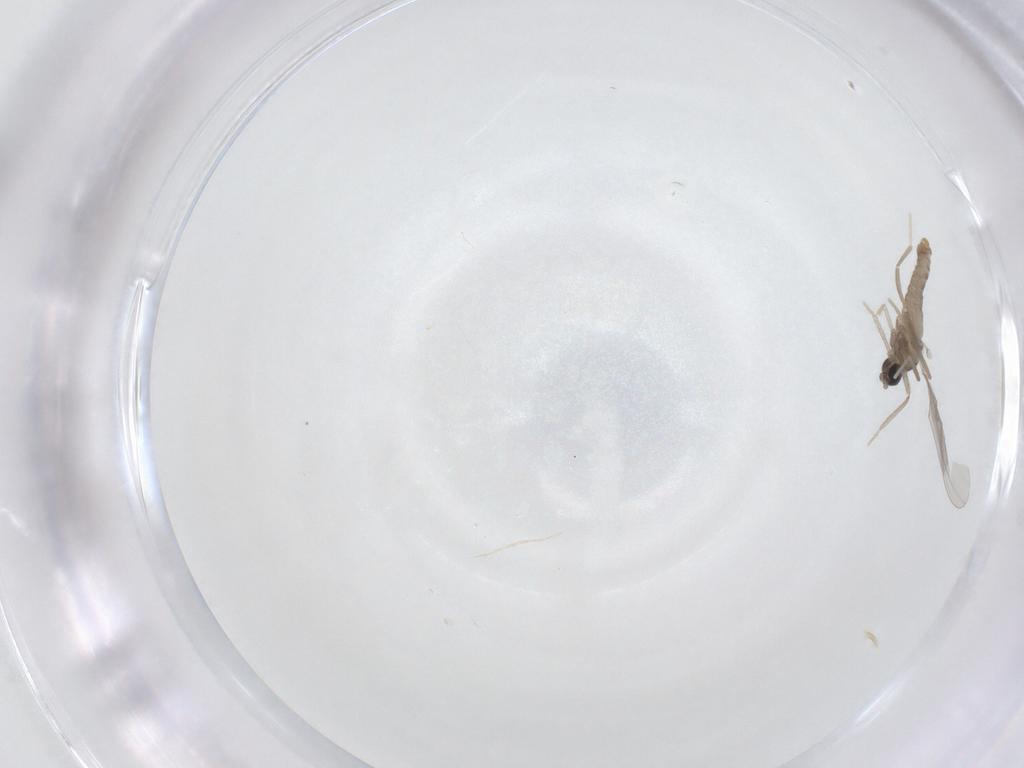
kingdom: Animalia
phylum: Arthropoda
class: Insecta
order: Diptera
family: Cecidomyiidae
